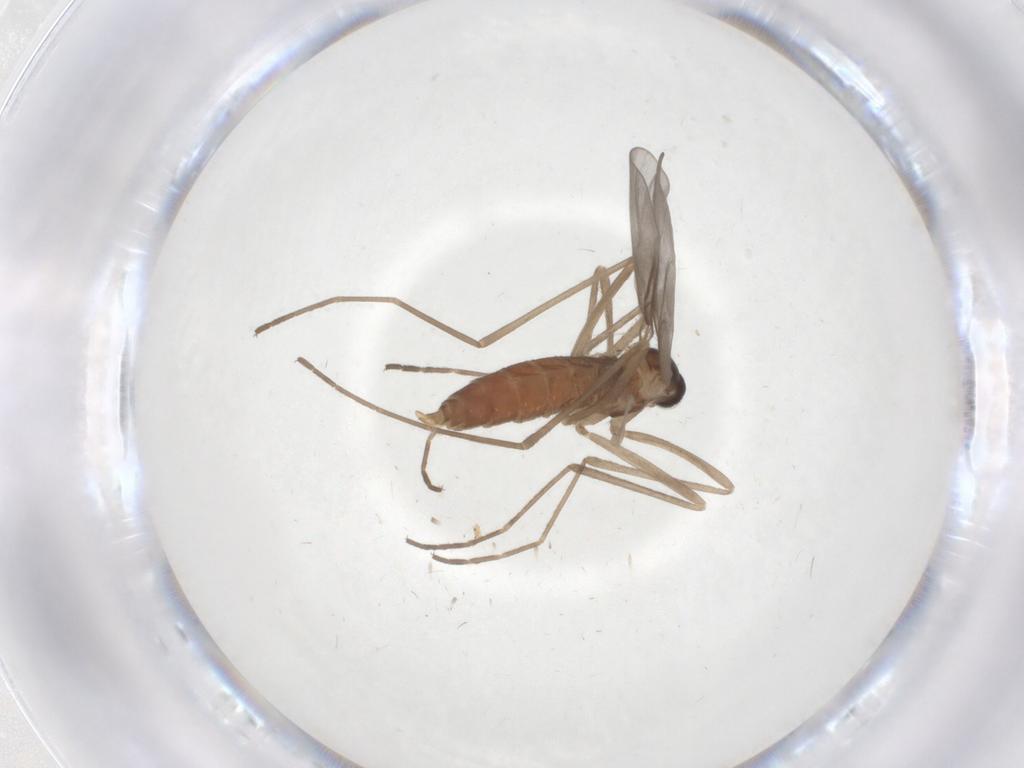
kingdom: Animalia
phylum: Arthropoda
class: Insecta
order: Diptera
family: Cecidomyiidae
